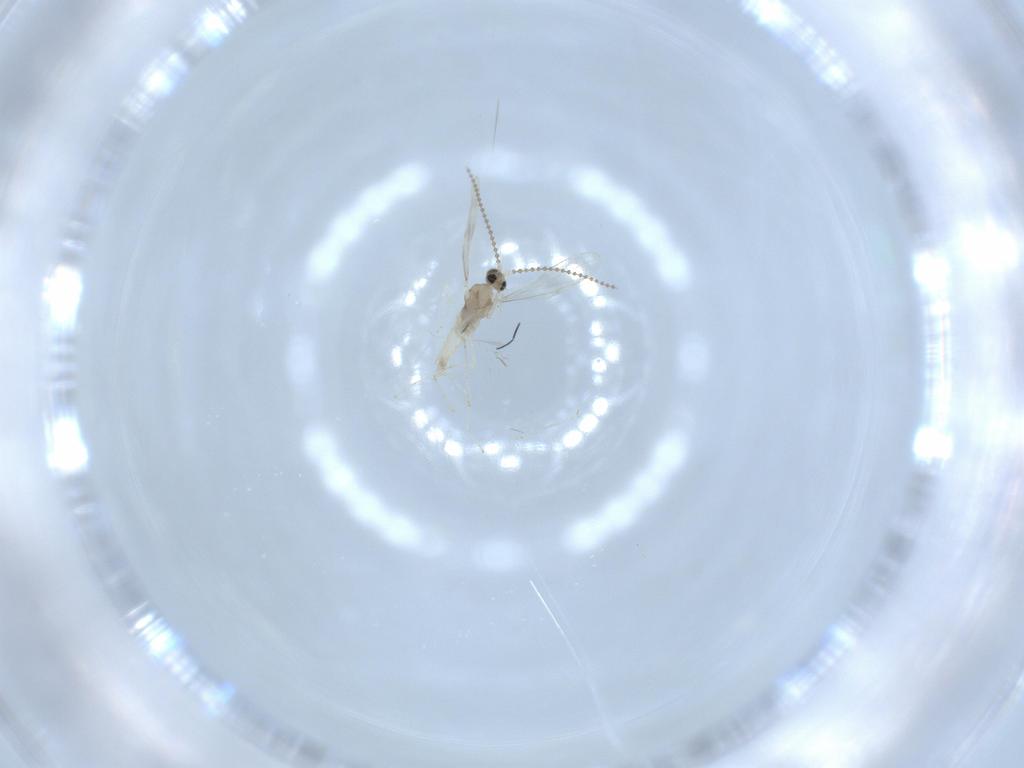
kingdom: Animalia
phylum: Arthropoda
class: Insecta
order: Diptera
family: Cecidomyiidae
